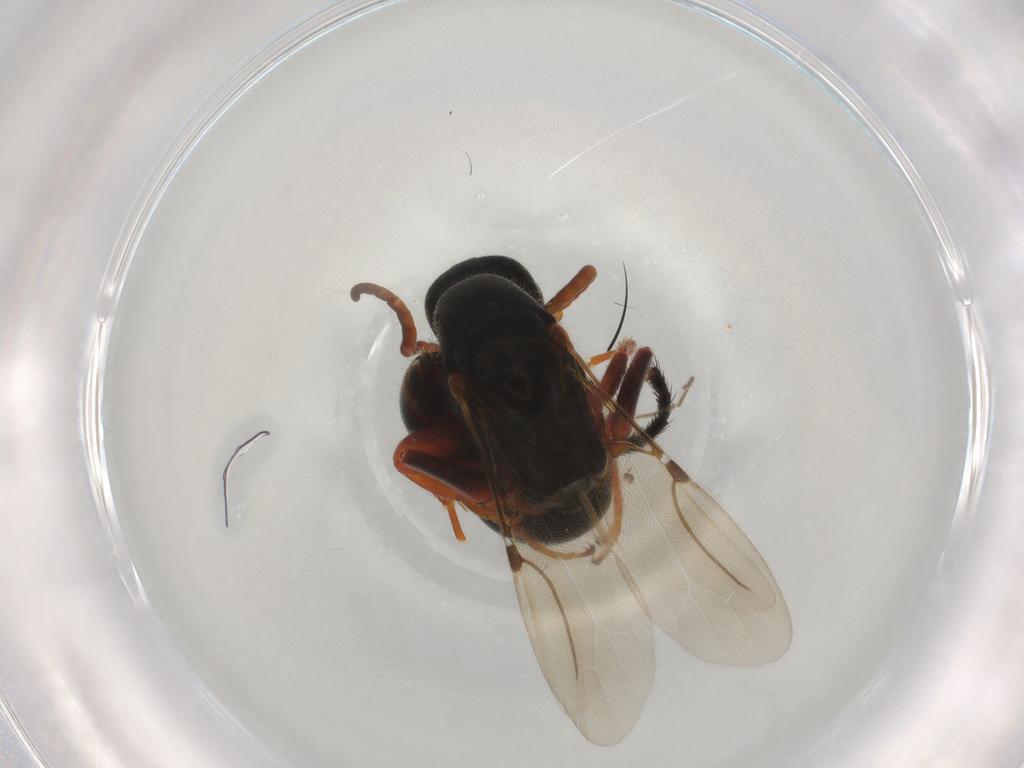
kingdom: Animalia
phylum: Arthropoda
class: Insecta
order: Hymenoptera
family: Bethylidae
